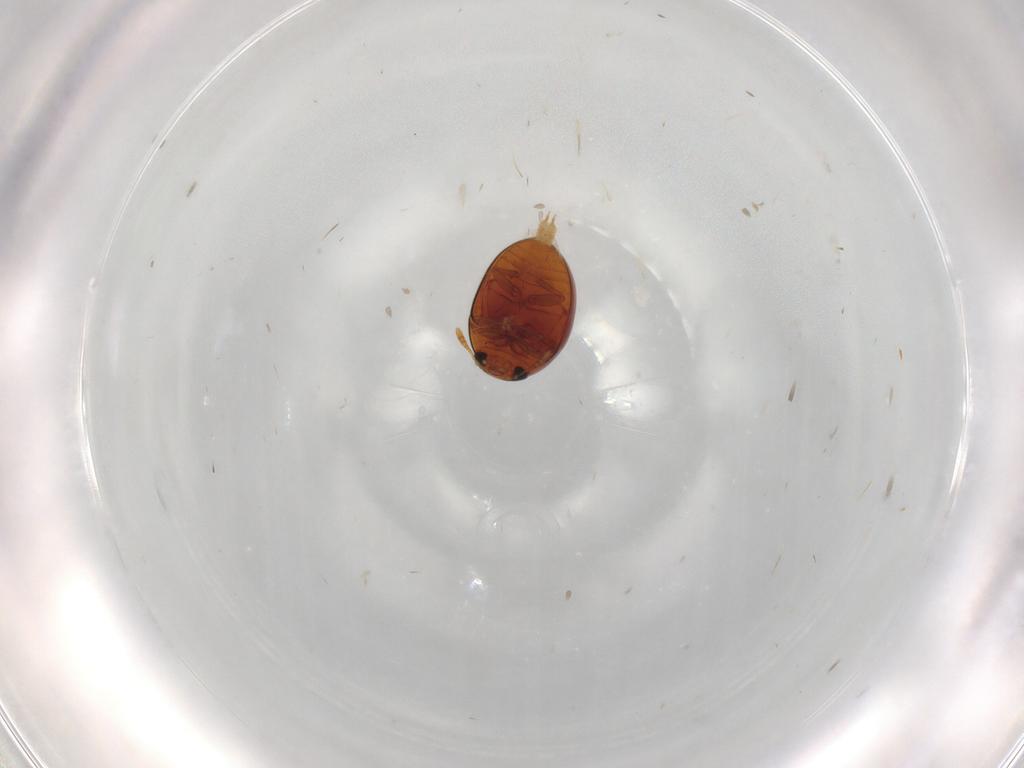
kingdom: Animalia
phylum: Arthropoda
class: Insecta
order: Coleoptera
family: Phalacridae
